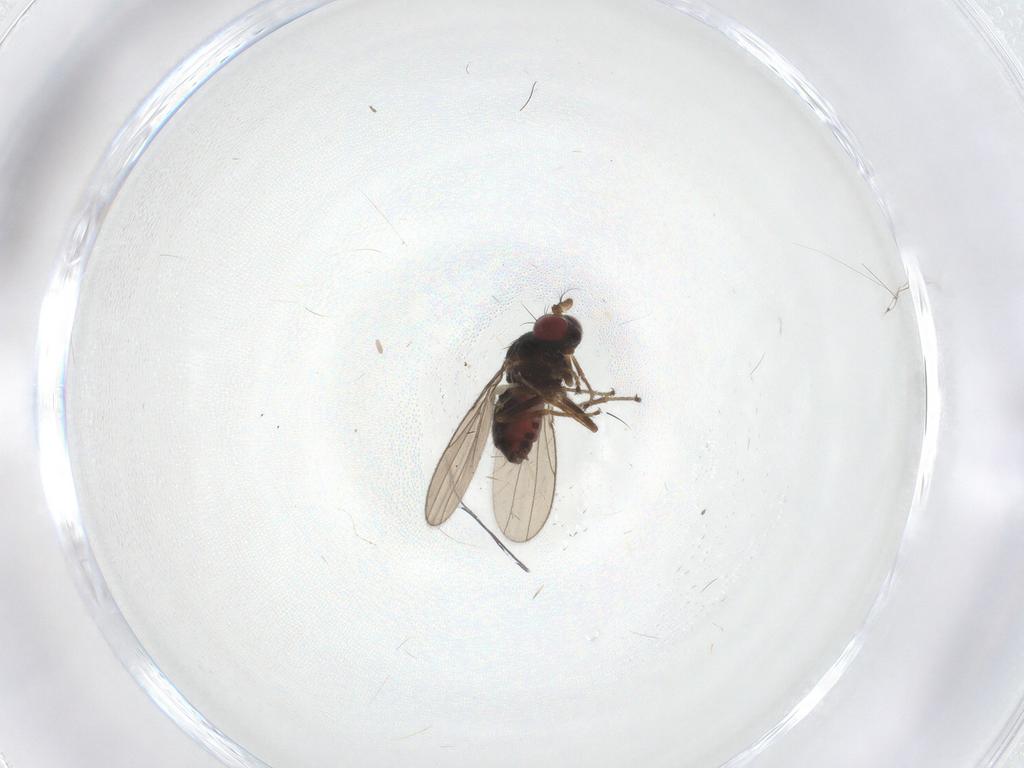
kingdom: Animalia
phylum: Arthropoda
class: Insecta
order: Diptera
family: Ephydridae
